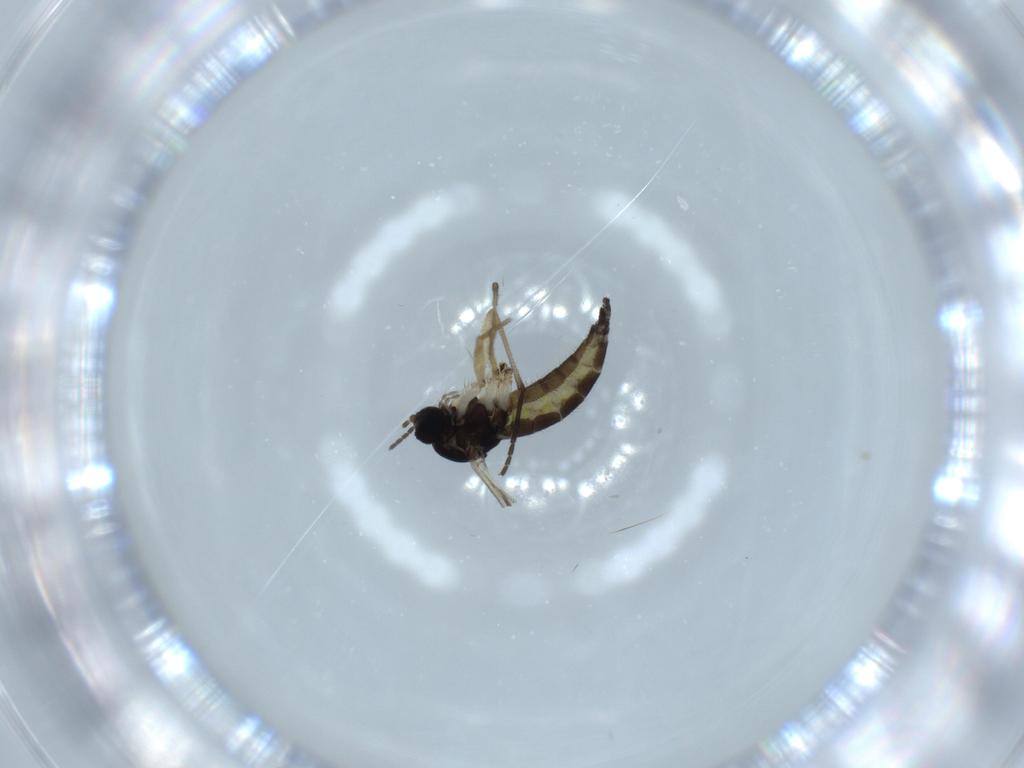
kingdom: Animalia
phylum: Arthropoda
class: Insecta
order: Diptera
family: Sciaridae
